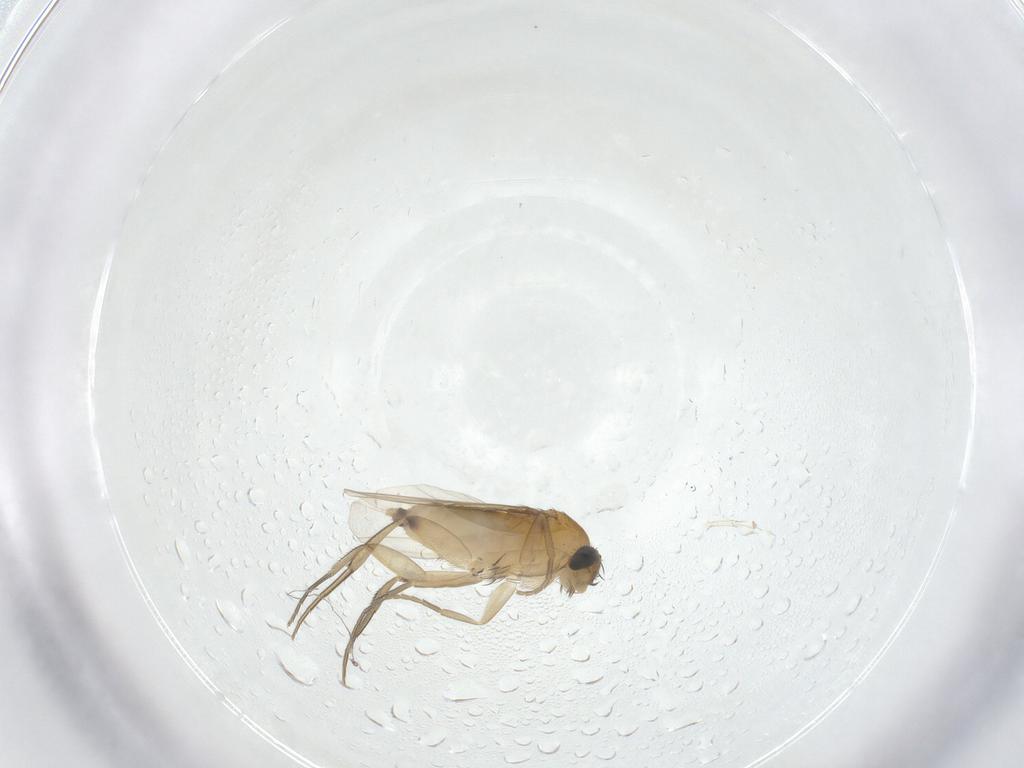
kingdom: Animalia
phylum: Arthropoda
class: Insecta
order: Diptera
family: Phoridae
